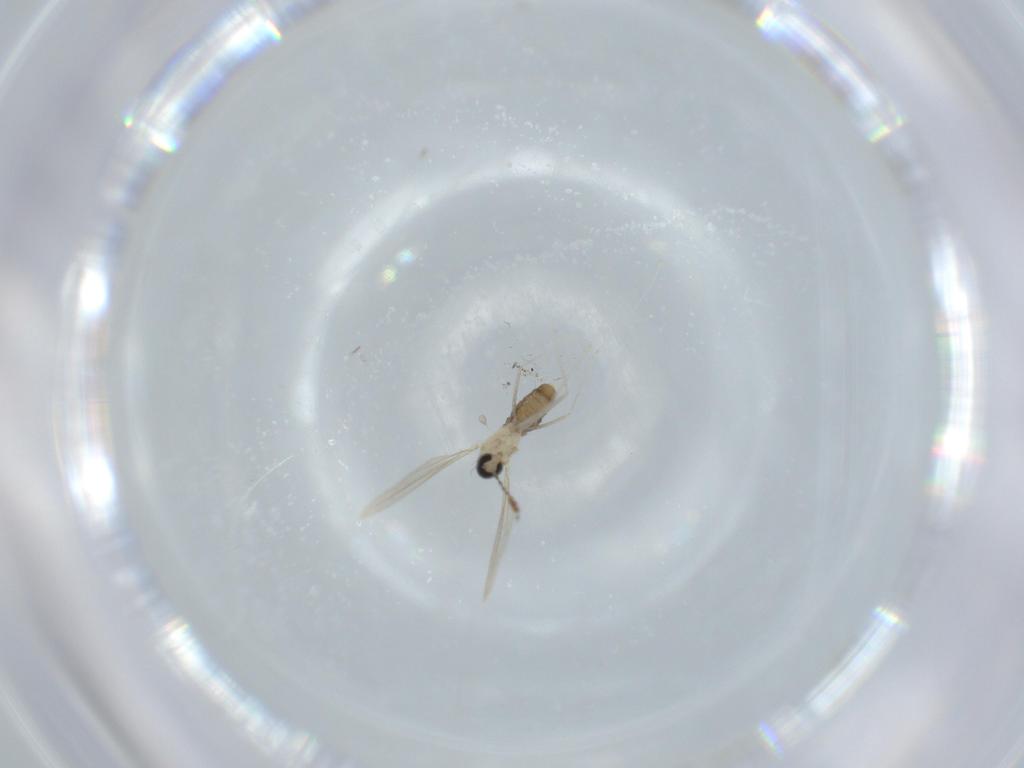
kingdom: Animalia
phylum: Arthropoda
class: Insecta
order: Diptera
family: Cecidomyiidae
